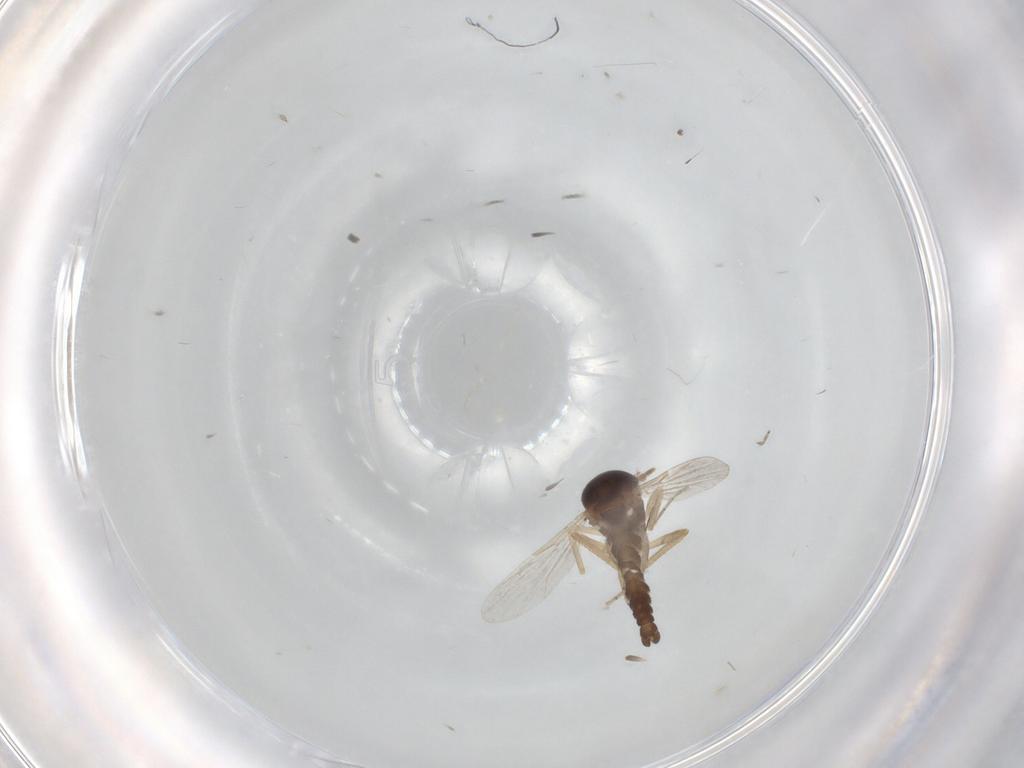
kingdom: Animalia
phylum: Arthropoda
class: Insecta
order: Diptera
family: Ceratopogonidae
